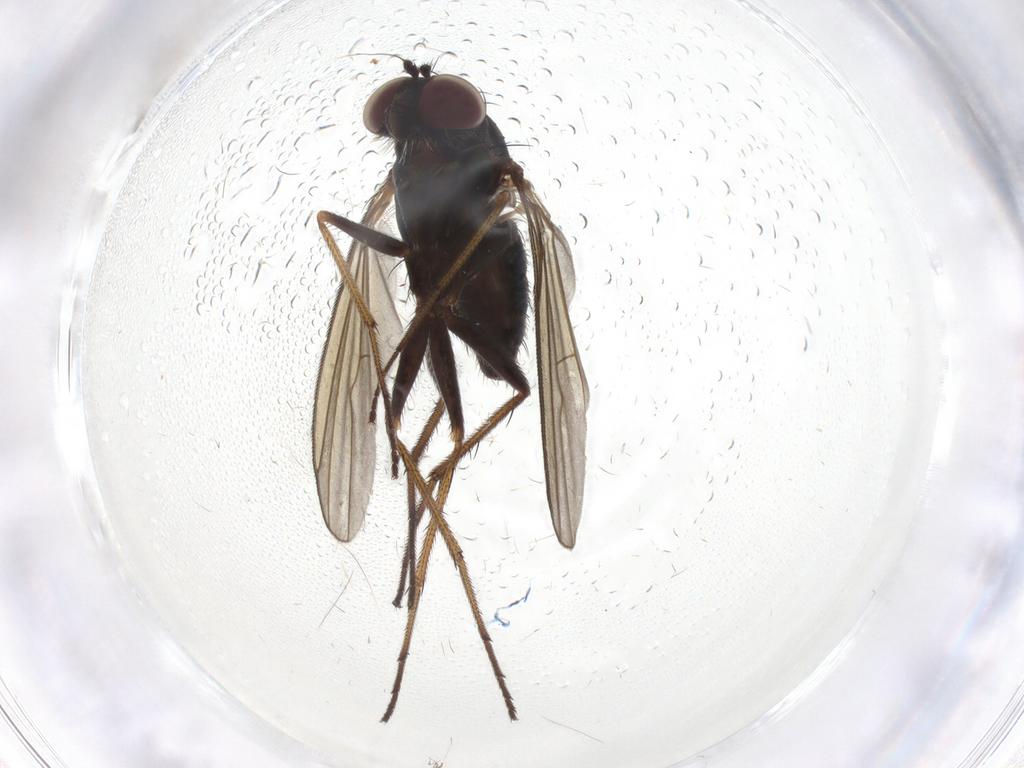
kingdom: Animalia
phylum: Arthropoda
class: Insecta
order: Diptera
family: Dolichopodidae
